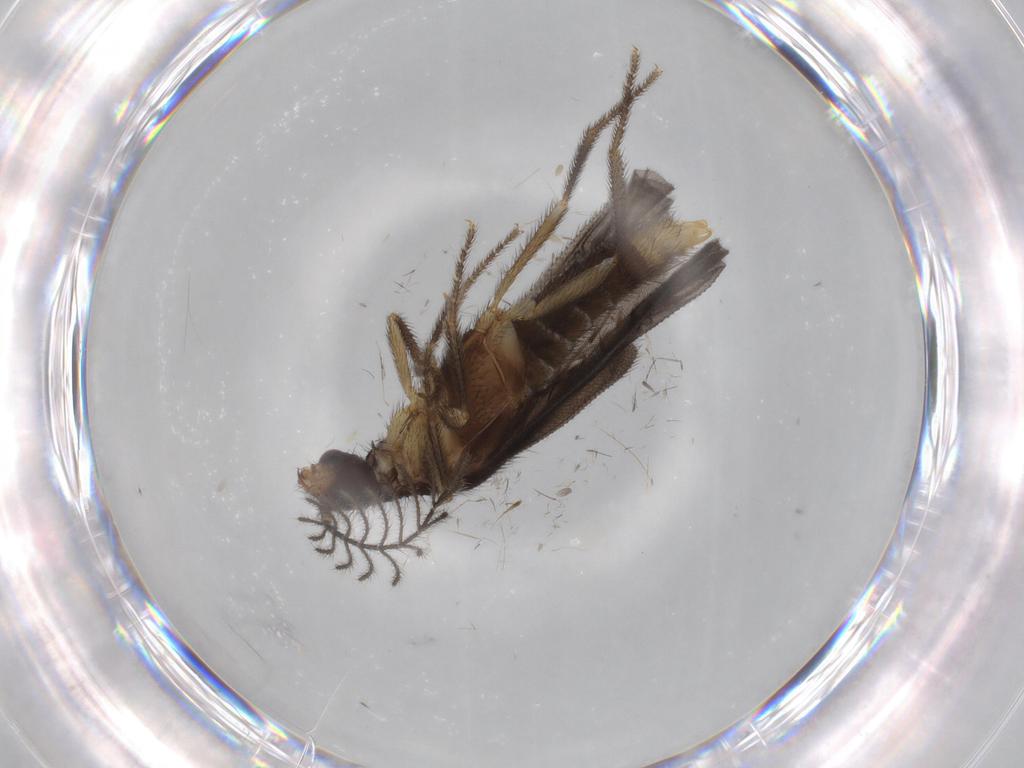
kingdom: Animalia
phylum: Arthropoda
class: Insecta
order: Coleoptera
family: Phengodidae
